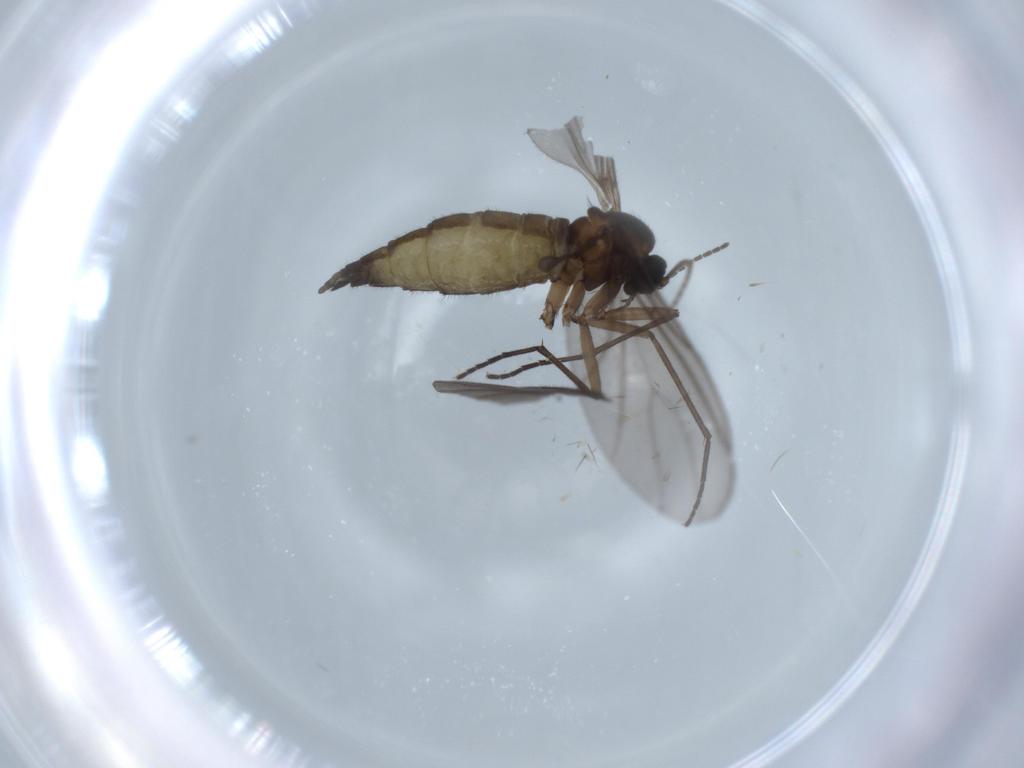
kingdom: Animalia
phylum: Arthropoda
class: Insecta
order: Diptera
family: Sciaridae
